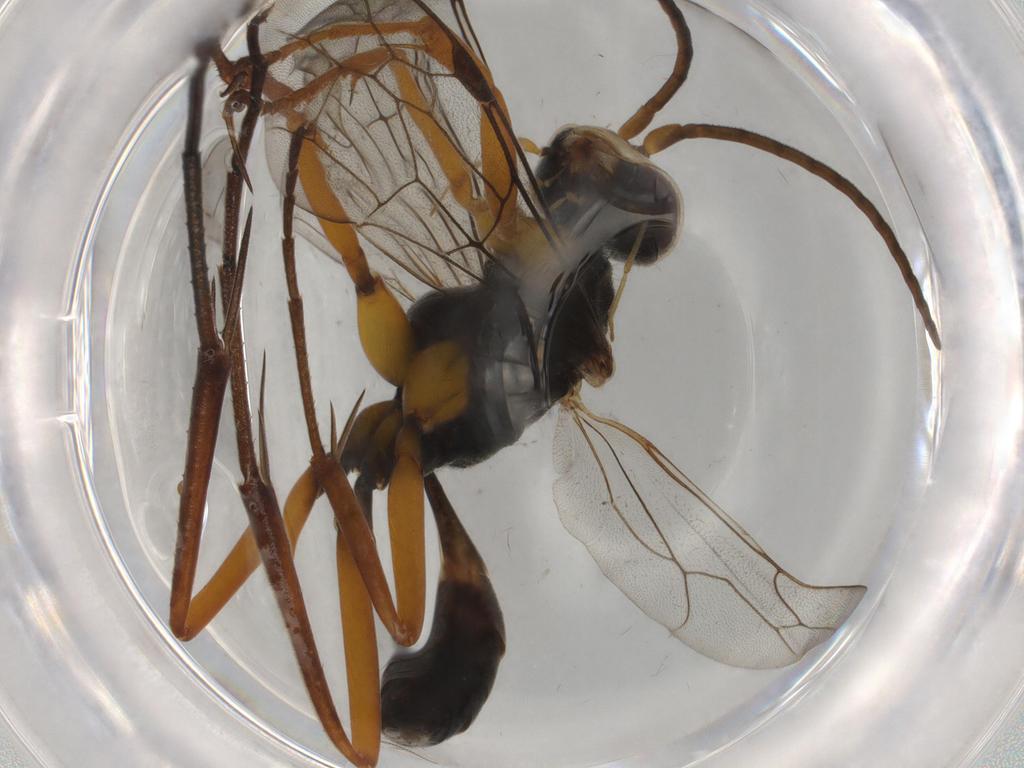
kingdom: Animalia
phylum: Arthropoda
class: Insecta
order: Hymenoptera
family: Pompilidae
